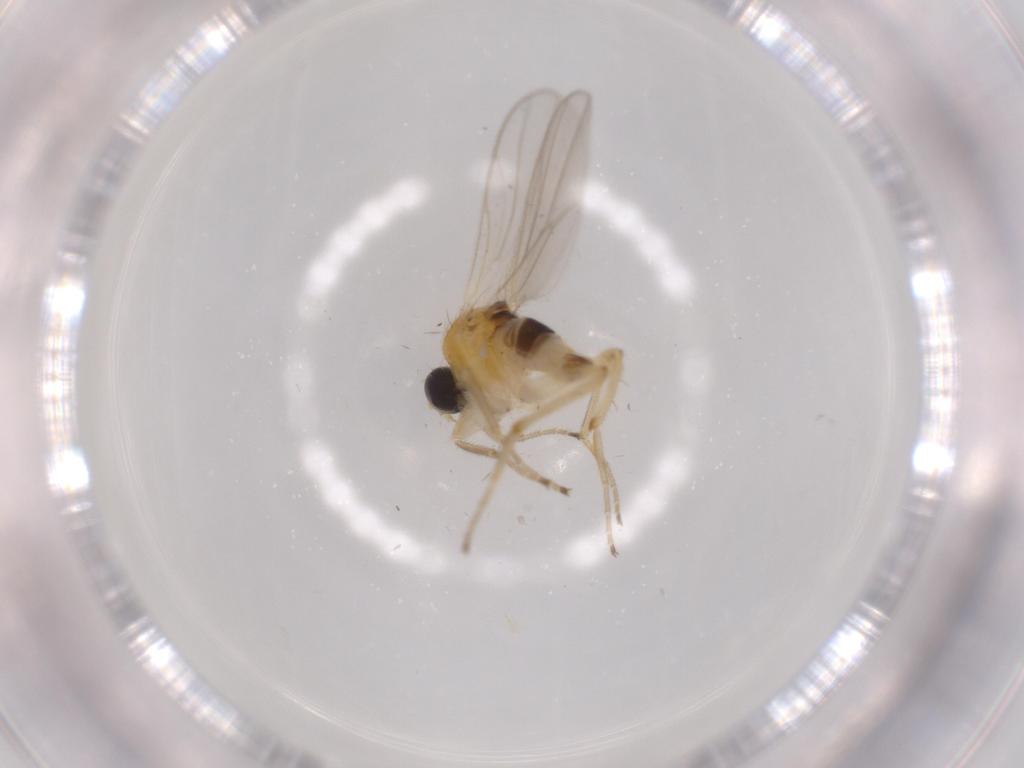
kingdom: Animalia
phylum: Arthropoda
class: Insecta
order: Diptera
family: Hybotidae
